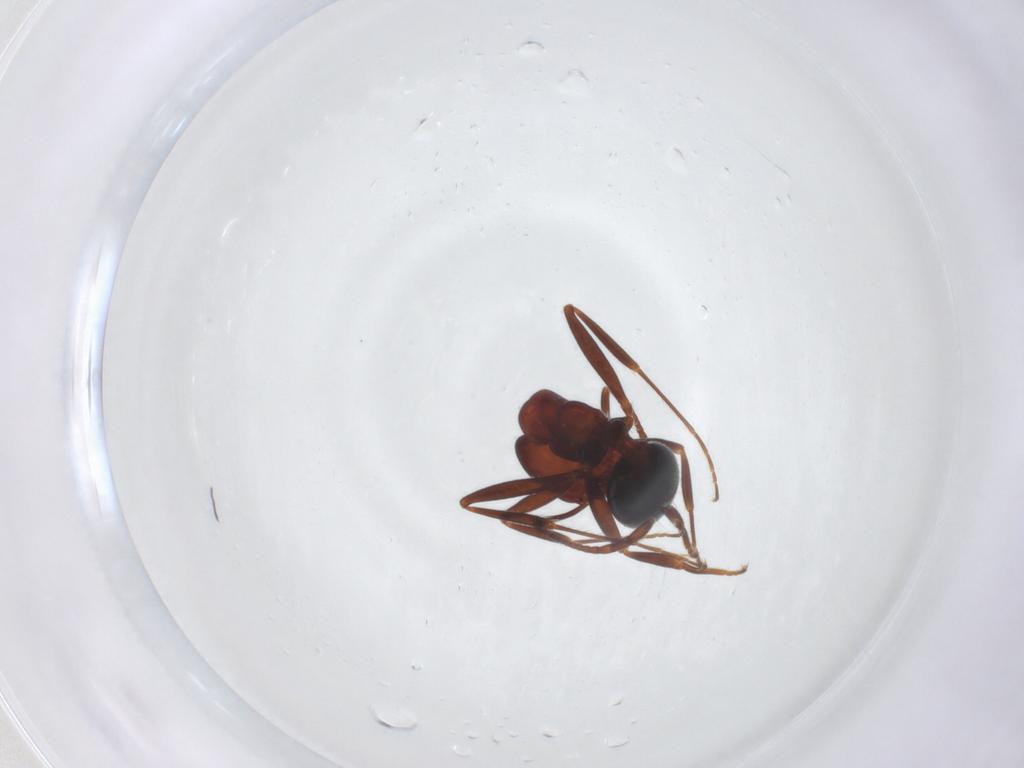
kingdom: Animalia
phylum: Arthropoda
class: Insecta
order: Hymenoptera
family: Formicidae
